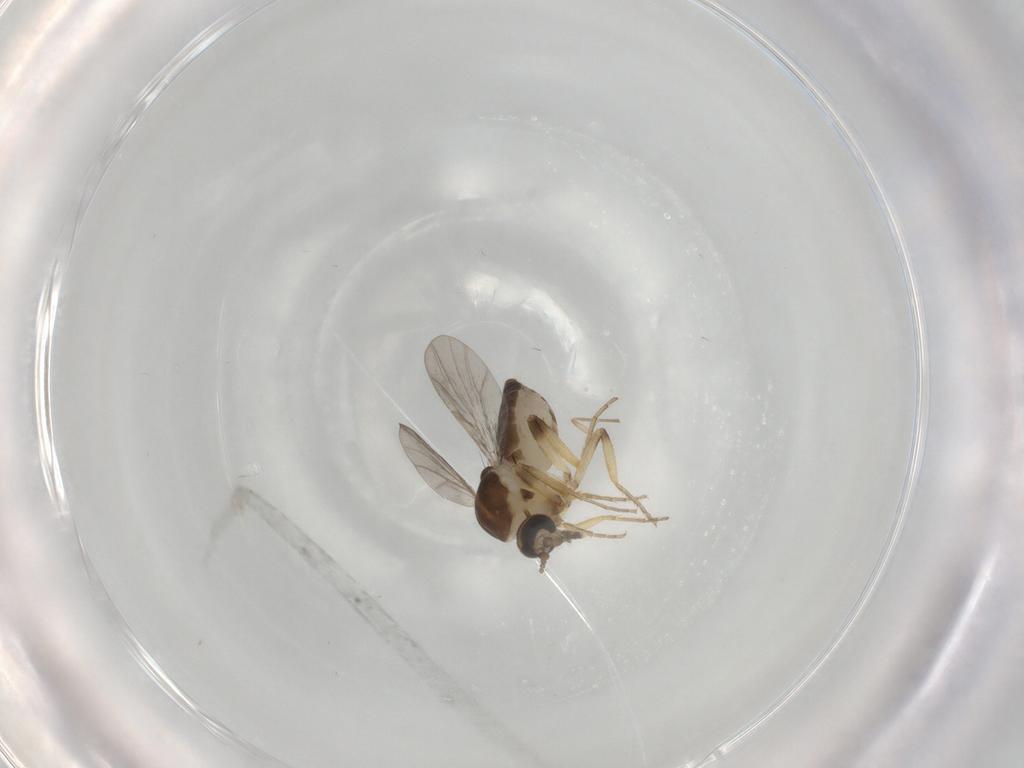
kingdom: Animalia
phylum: Arthropoda
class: Insecta
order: Diptera
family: Ceratopogonidae
